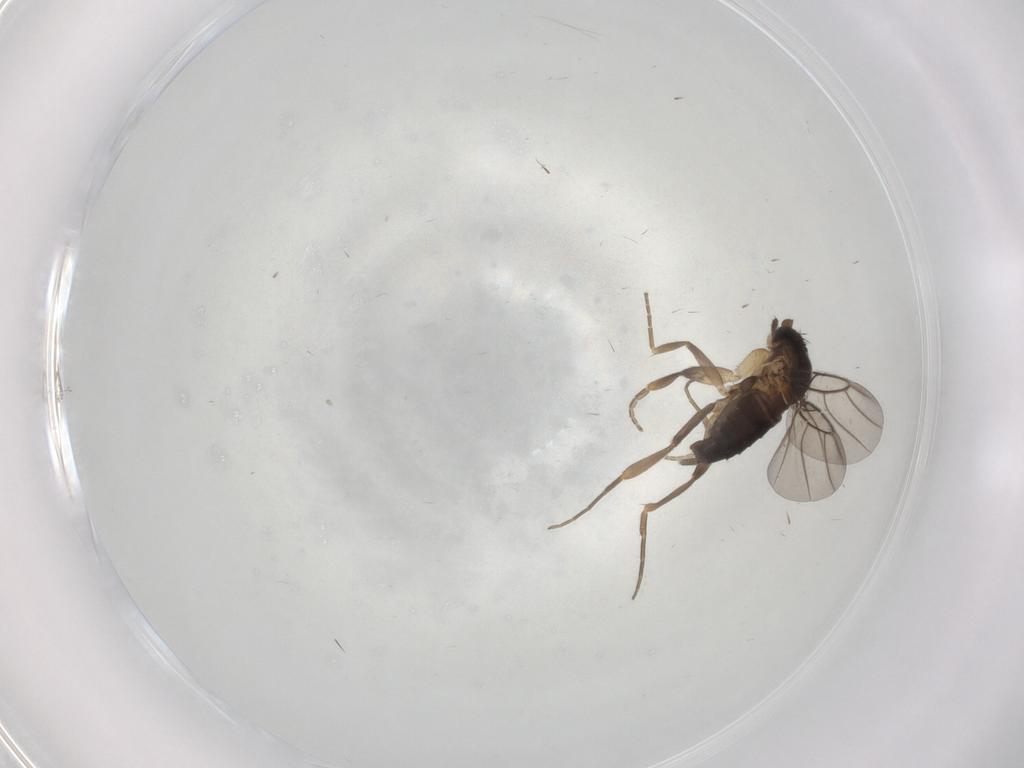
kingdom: Animalia
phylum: Arthropoda
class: Insecta
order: Diptera
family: Phoridae
